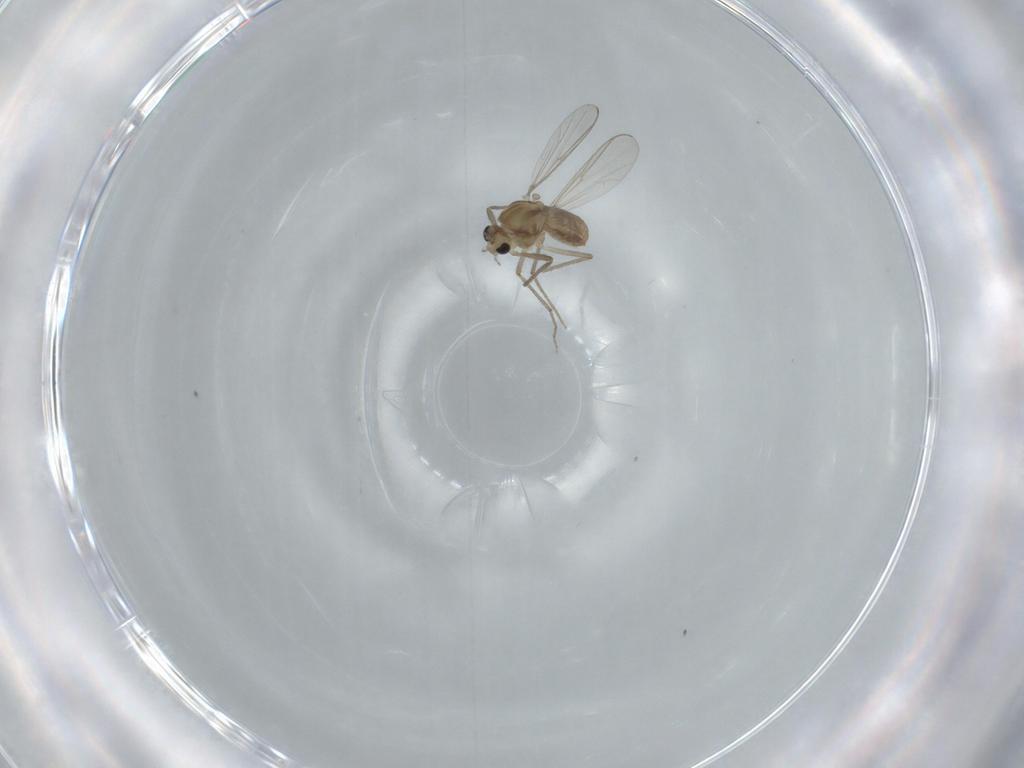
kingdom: Animalia
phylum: Arthropoda
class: Insecta
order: Diptera
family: Chironomidae
